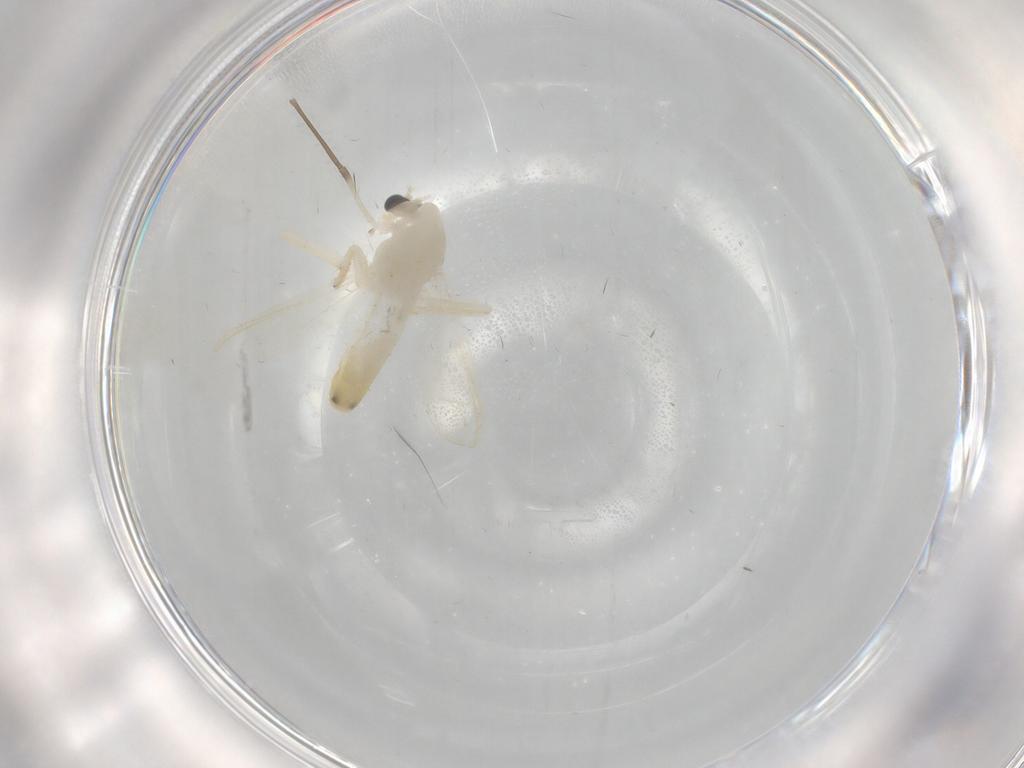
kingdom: Animalia
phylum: Arthropoda
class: Insecta
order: Diptera
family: Chironomidae
